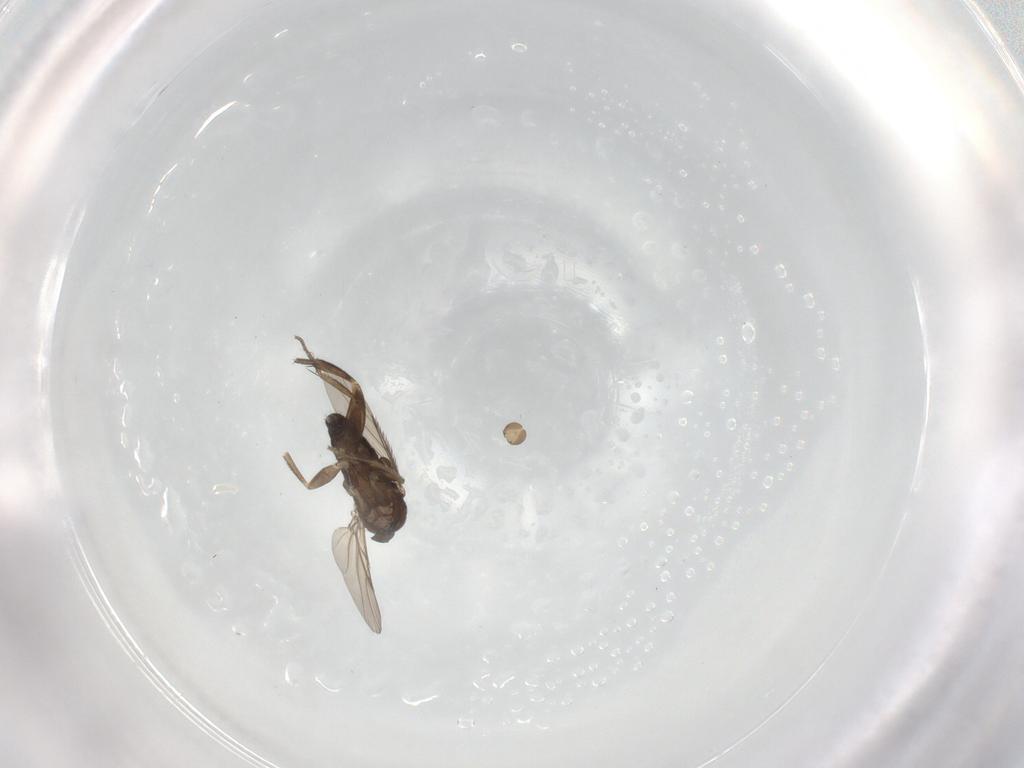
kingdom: Animalia
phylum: Arthropoda
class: Insecta
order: Diptera
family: Phoridae
